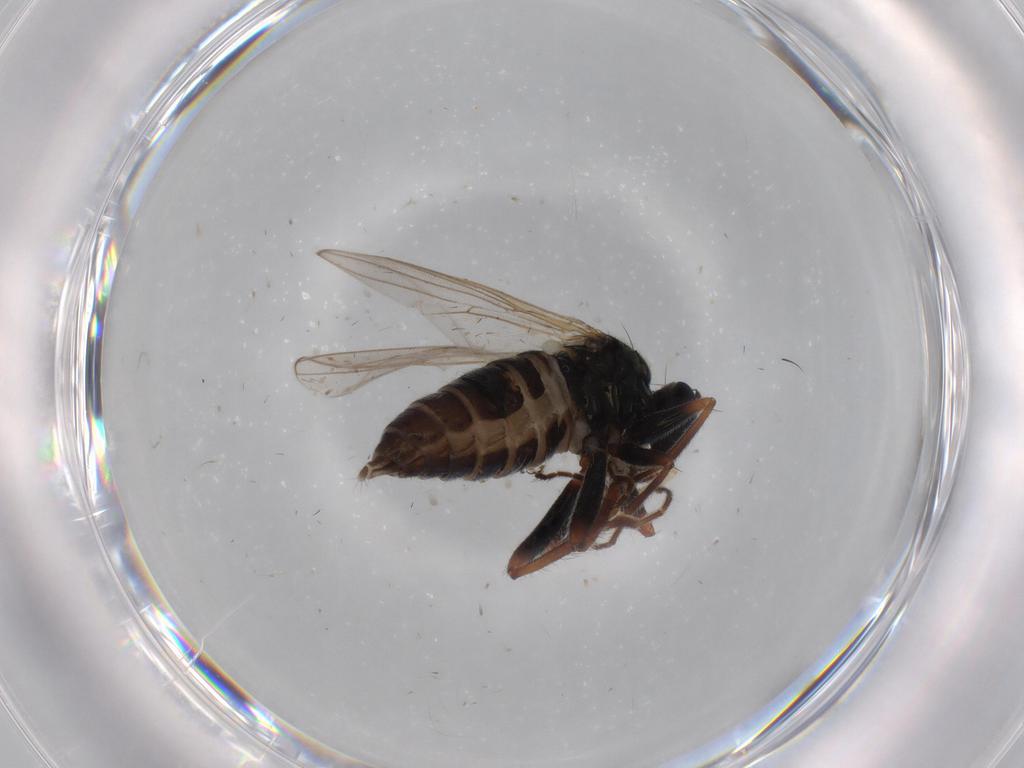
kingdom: Animalia
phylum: Arthropoda
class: Insecta
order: Diptera
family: Hybotidae
